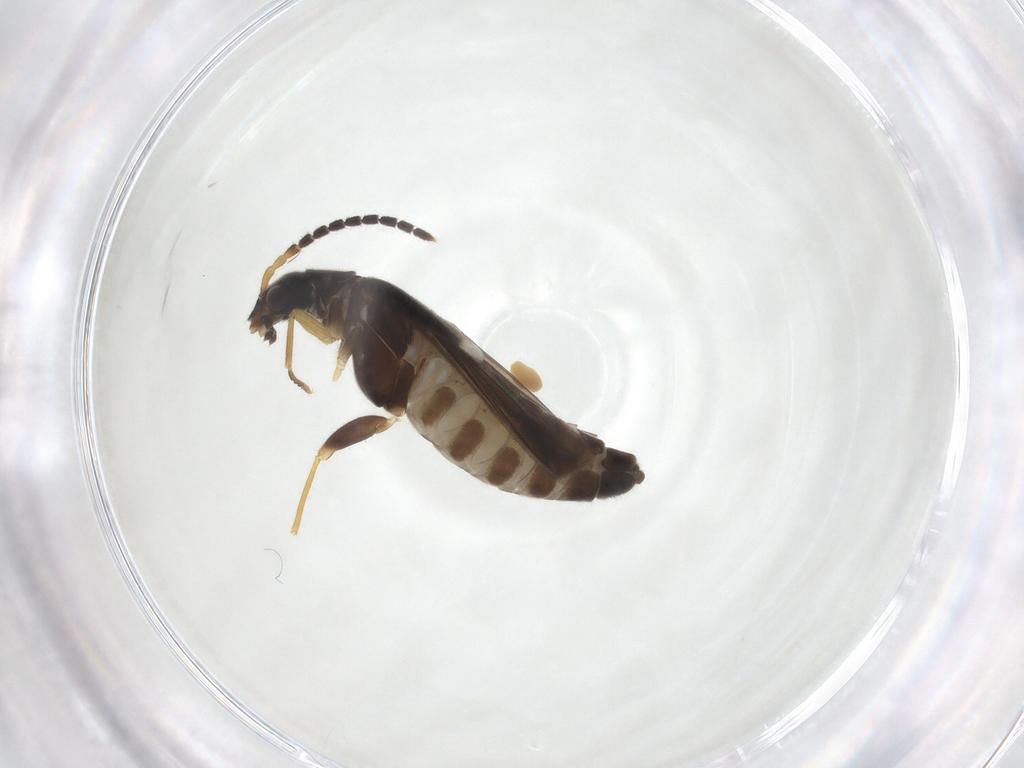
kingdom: Animalia
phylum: Arthropoda
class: Insecta
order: Coleoptera
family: Cantharidae
